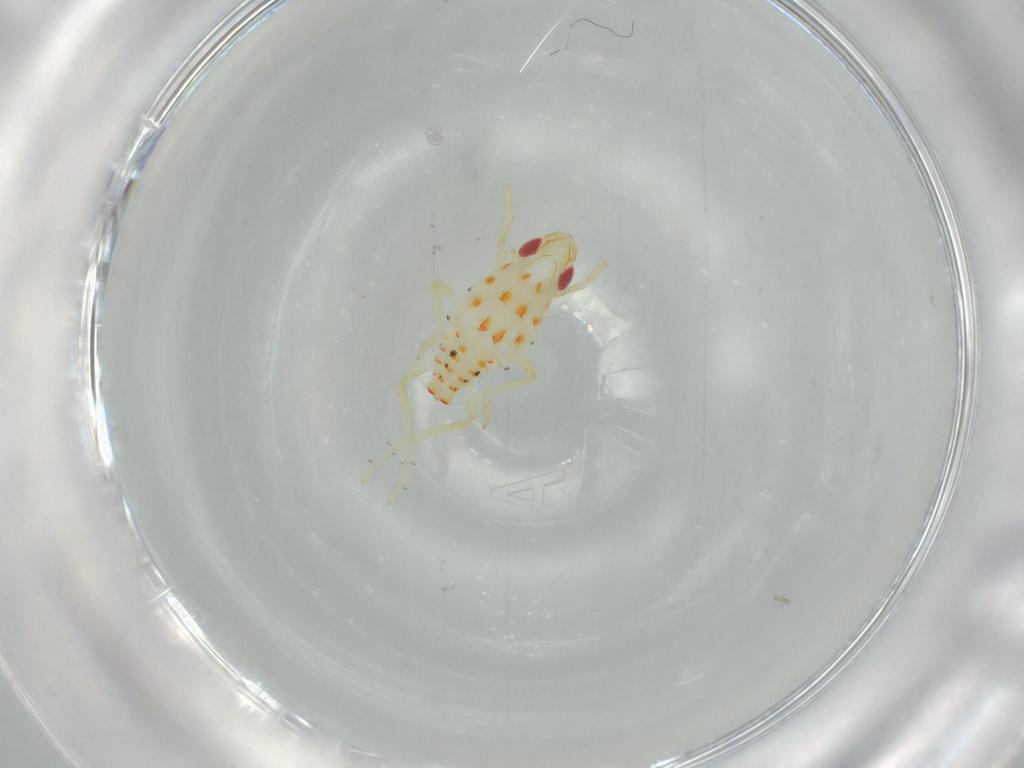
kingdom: Animalia
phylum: Arthropoda
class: Insecta
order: Hemiptera
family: Tropiduchidae
